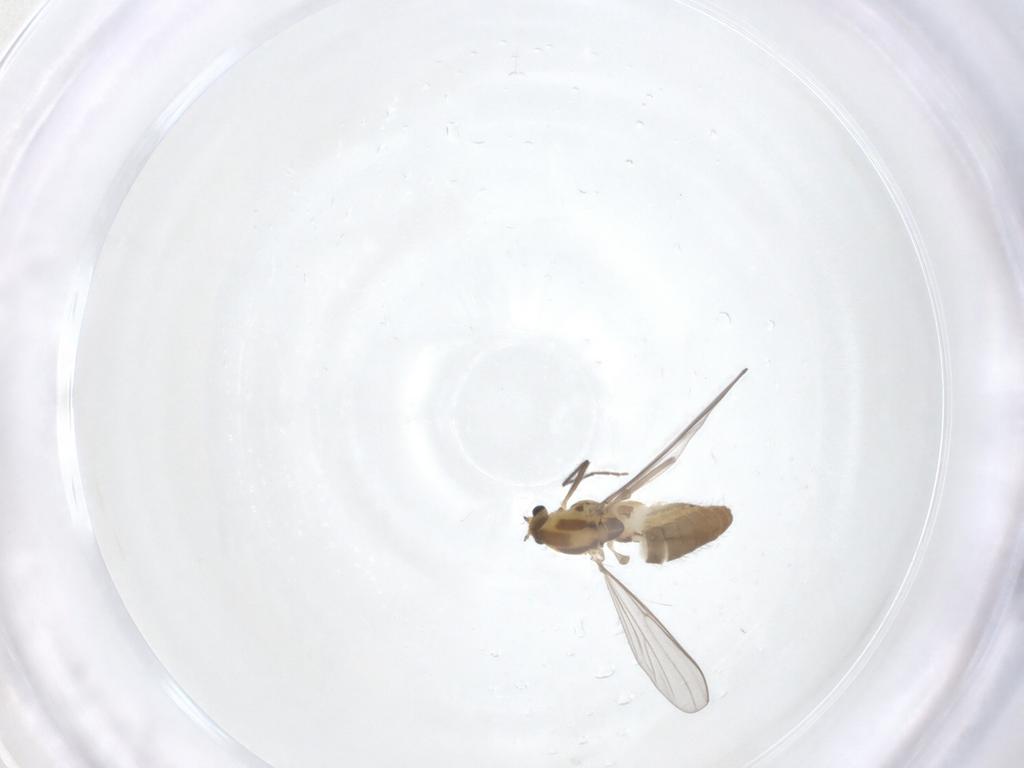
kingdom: Animalia
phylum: Arthropoda
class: Insecta
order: Diptera
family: Chironomidae
